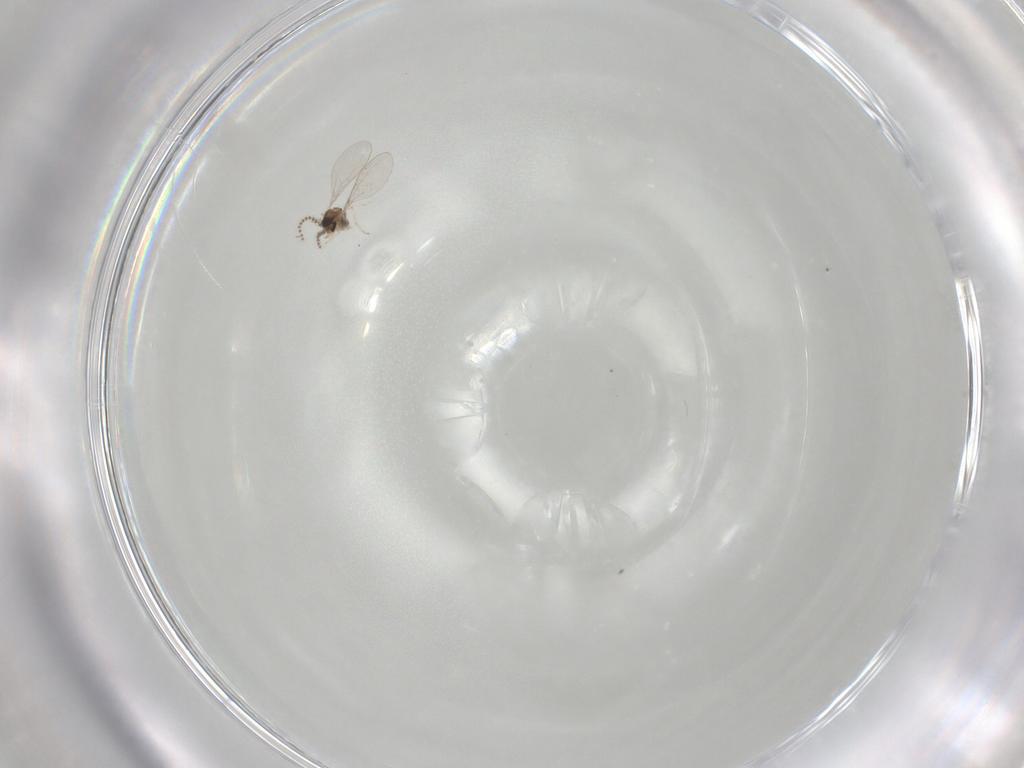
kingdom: Animalia
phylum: Arthropoda
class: Insecta
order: Diptera
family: Cecidomyiidae
